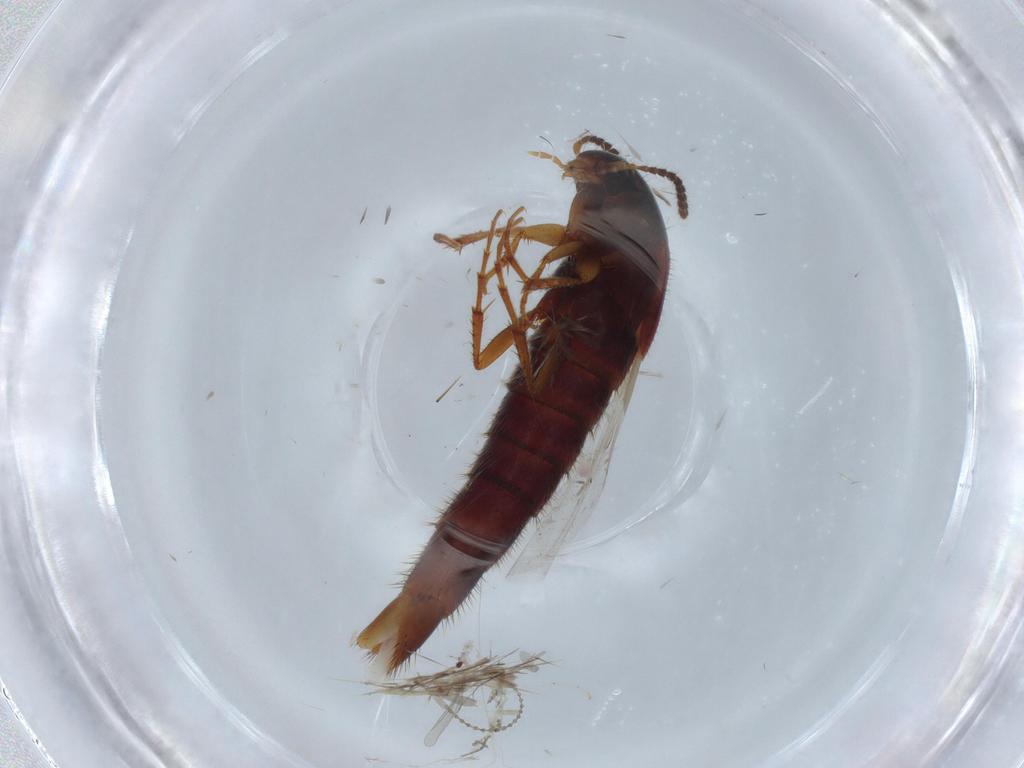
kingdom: Animalia
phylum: Arthropoda
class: Insecta
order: Coleoptera
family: Staphylinidae
